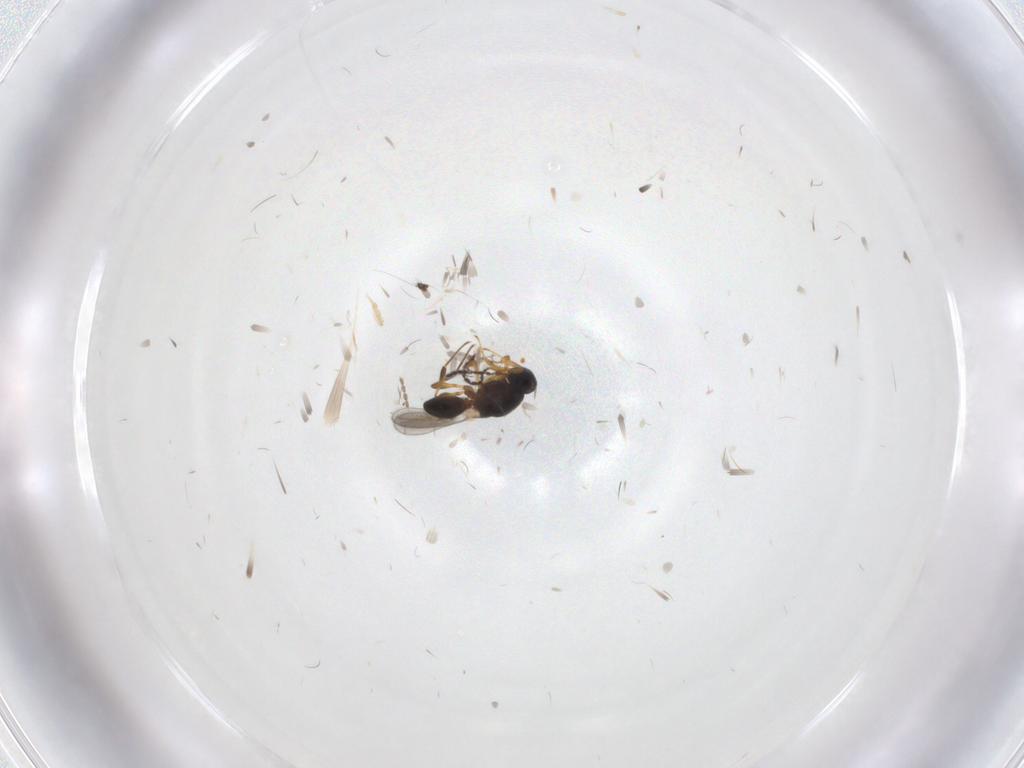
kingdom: Animalia
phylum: Arthropoda
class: Insecta
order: Hymenoptera
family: Platygastridae
